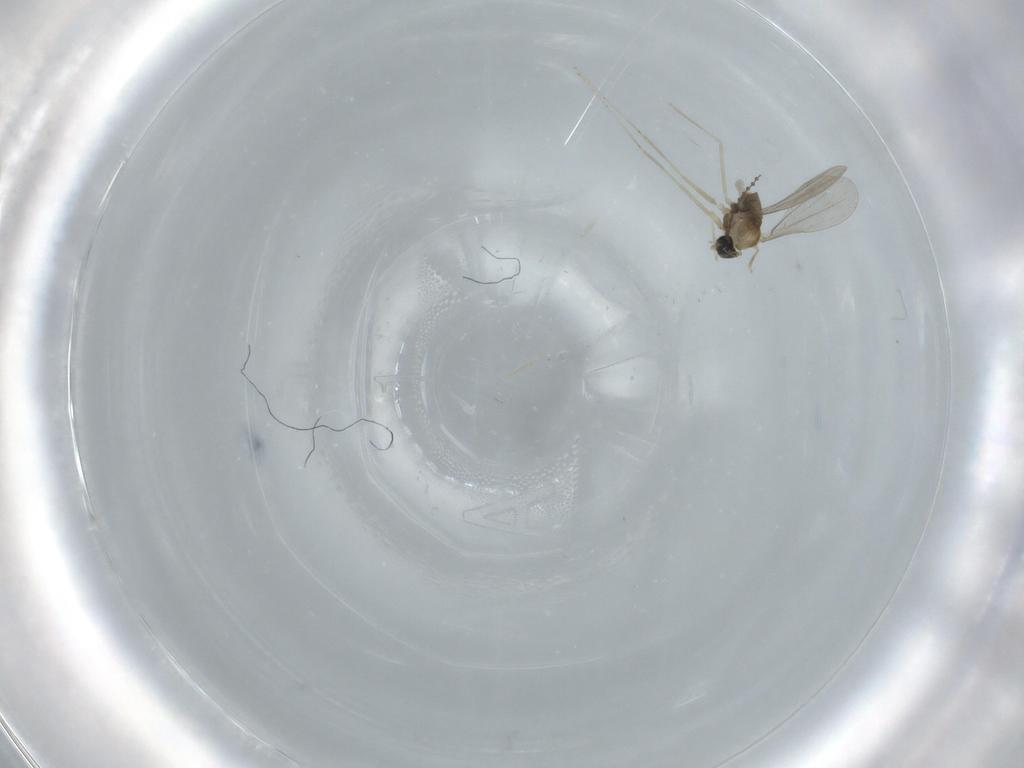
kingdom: Animalia
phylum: Arthropoda
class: Insecta
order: Diptera
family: Cecidomyiidae
